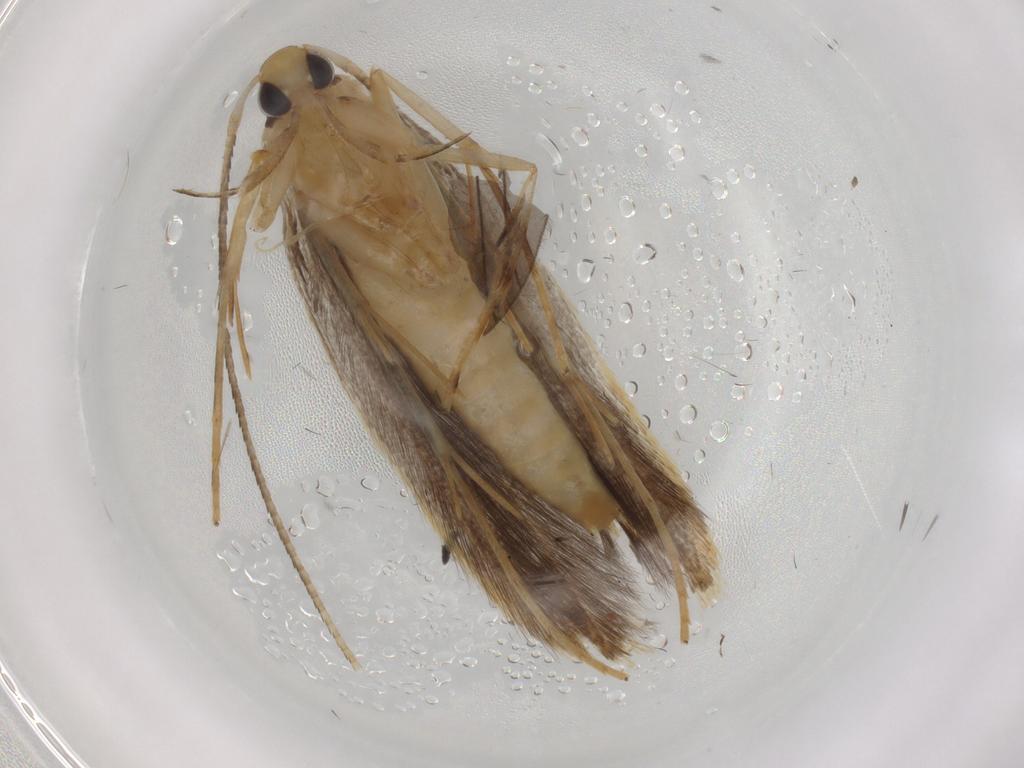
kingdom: Animalia
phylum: Arthropoda
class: Insecta
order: Lepidoptera
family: Pterolonchidae
